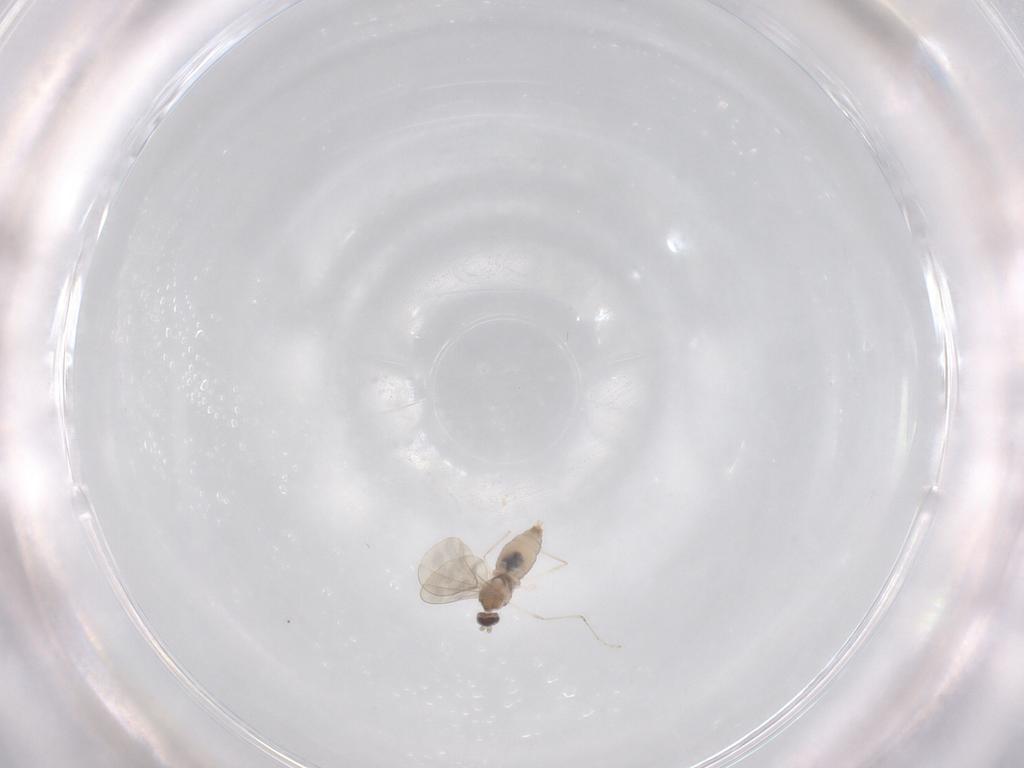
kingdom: Animalia
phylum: Arthropoda
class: Insecta
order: Diptera
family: Cecidomyiidae
